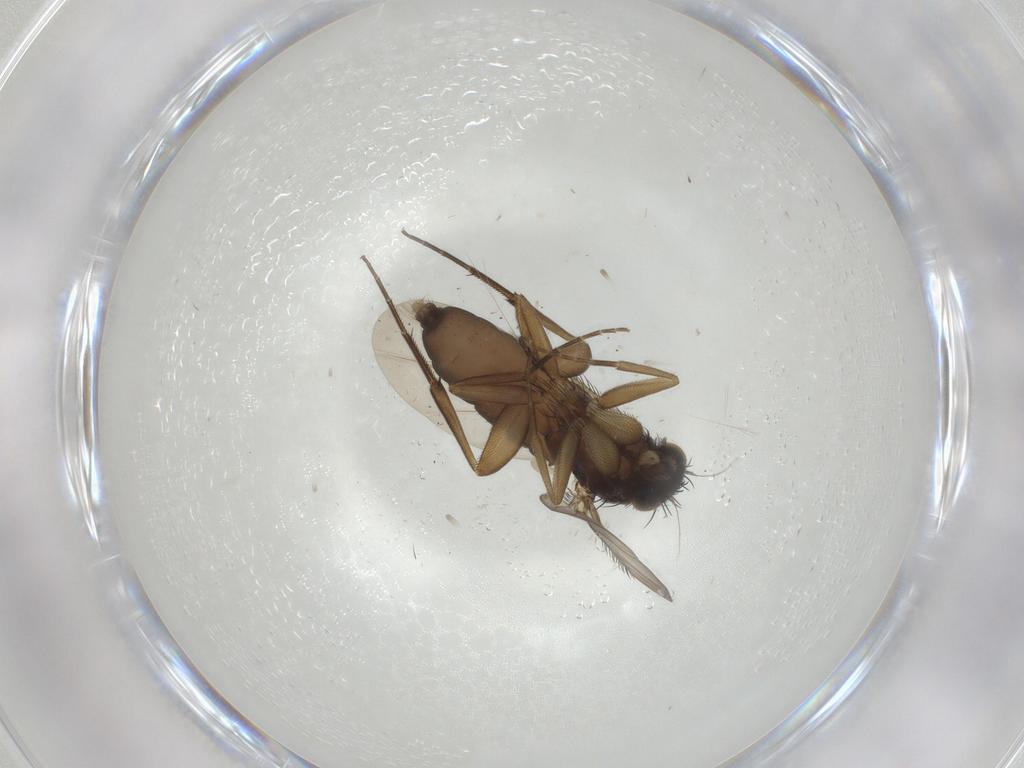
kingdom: Animalia
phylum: Arthropoda
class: Insecta
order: Diptera
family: Phoridae
